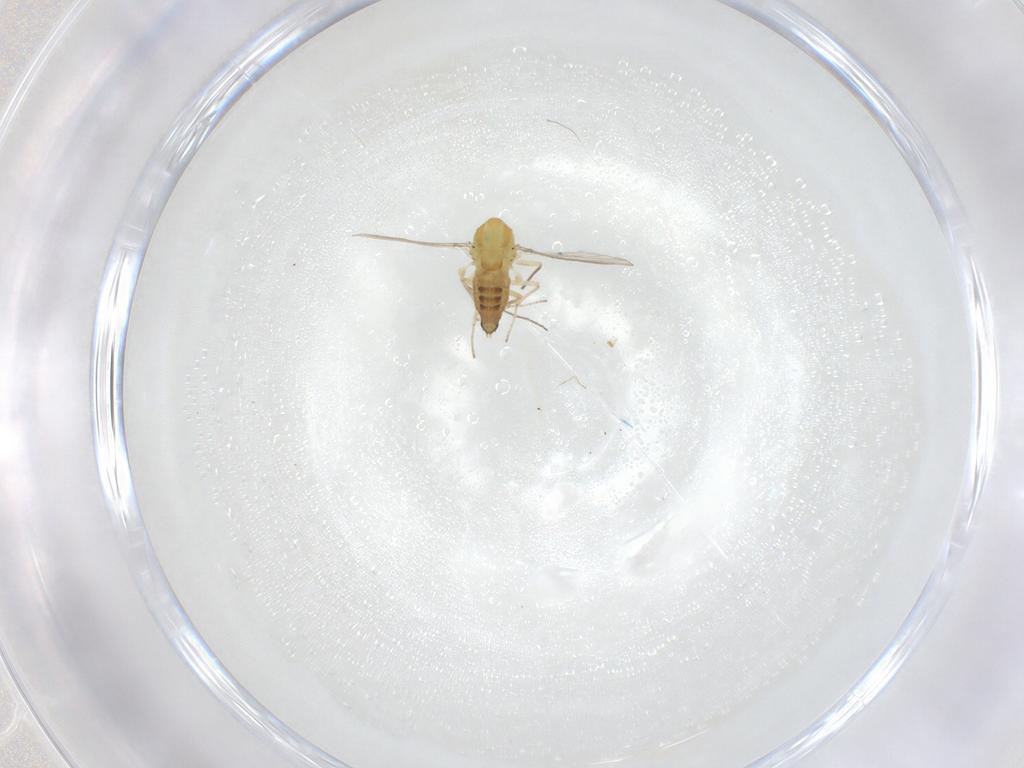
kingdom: Animalia
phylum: Arthropoda
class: Insecta
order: Diptera
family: Chironomidae
